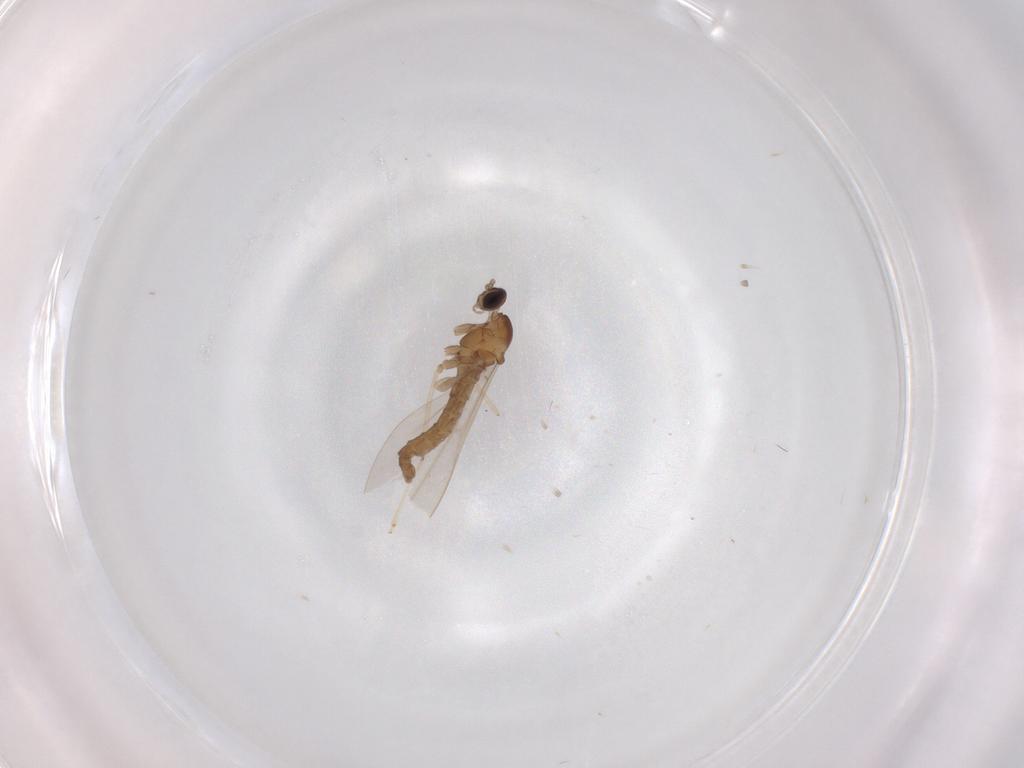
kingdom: Animalia
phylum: Arthropoda
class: Insecta
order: Diptera
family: Cecidomyiidae
